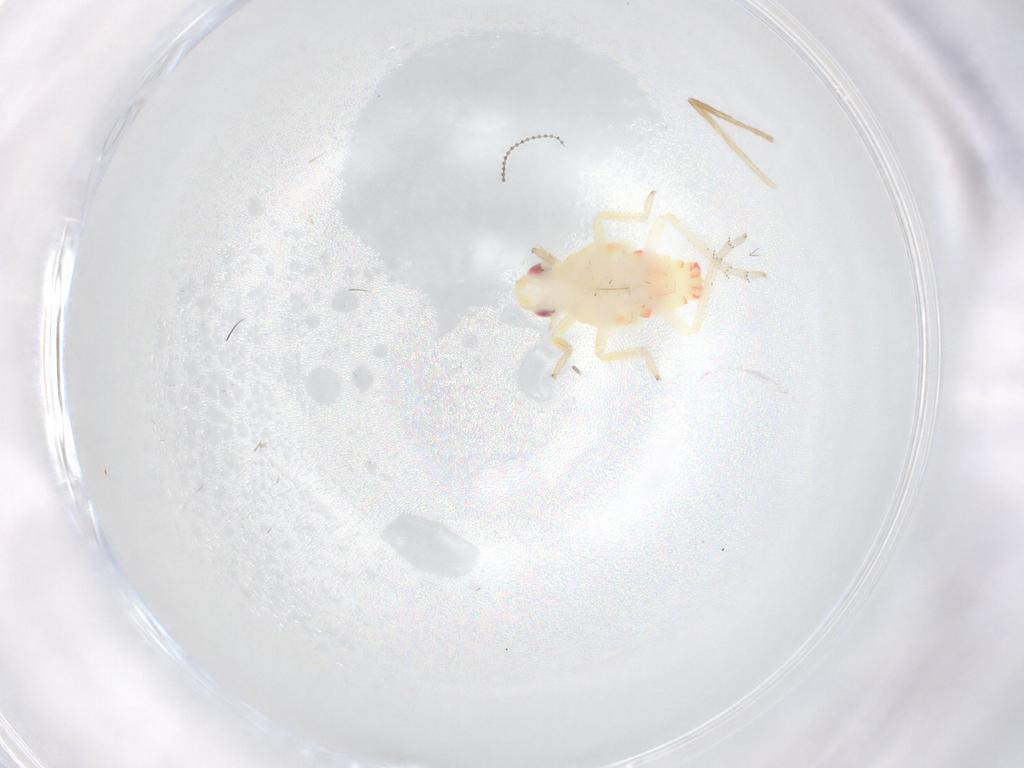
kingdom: Animalia
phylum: Arthropoda
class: Insecta
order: Hemiptera
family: Tropiduchidae
